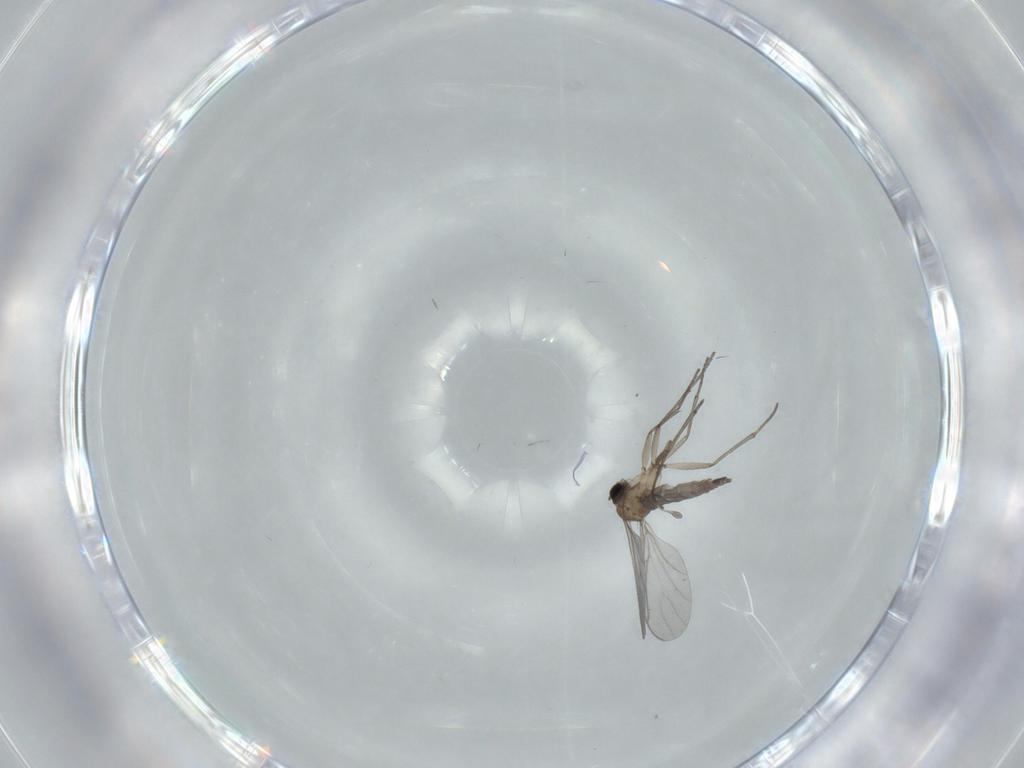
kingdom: Animalia
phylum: Arthropoda
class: Insecta
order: Diptera
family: Sciaridae
